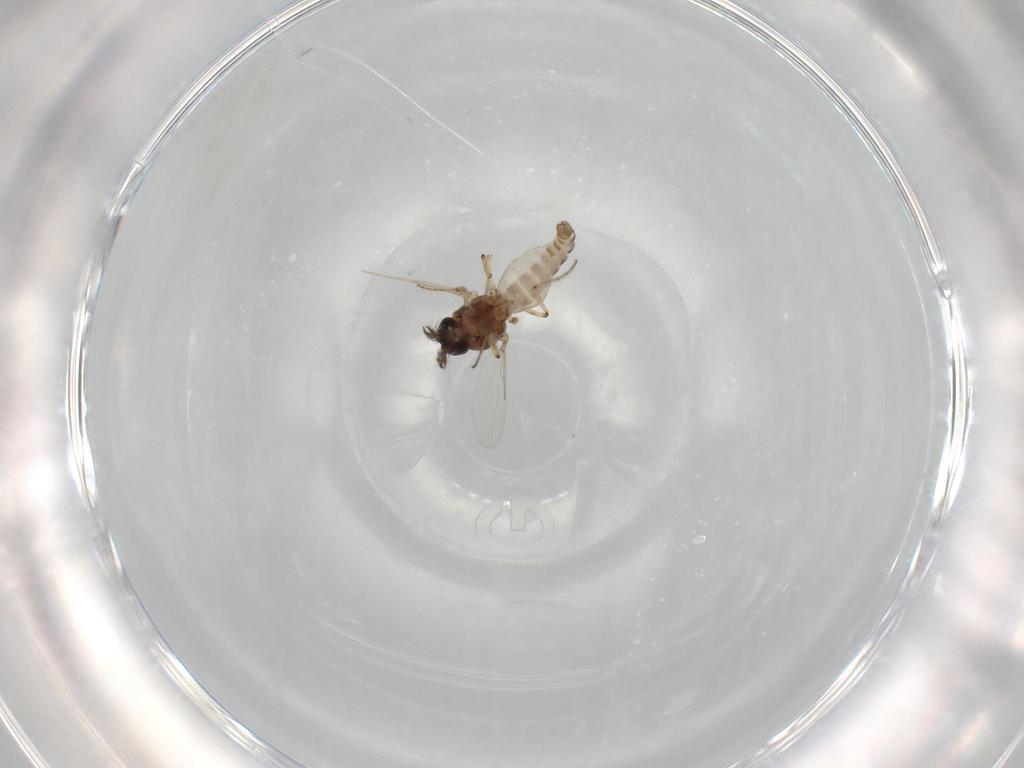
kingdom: Animalia
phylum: Arthropoda
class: Insecta
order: Diptera
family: Ceratopogonidae
